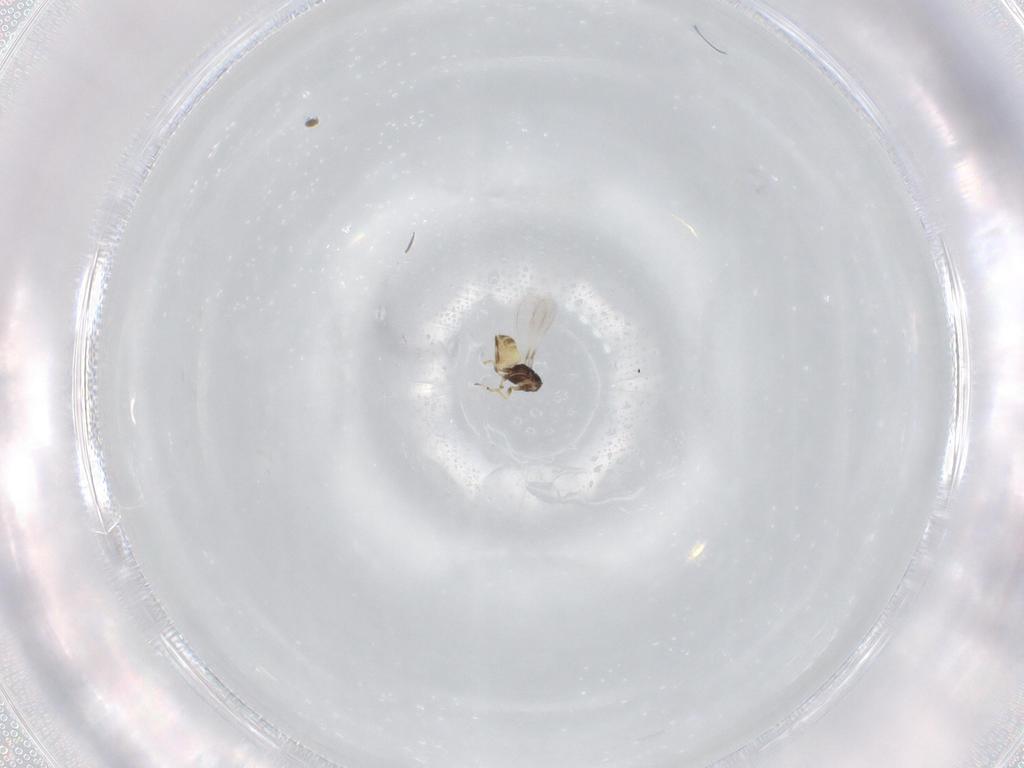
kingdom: Animalia
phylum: Arthropoda
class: Insecta
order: Hymenoptera
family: Mymaridae
